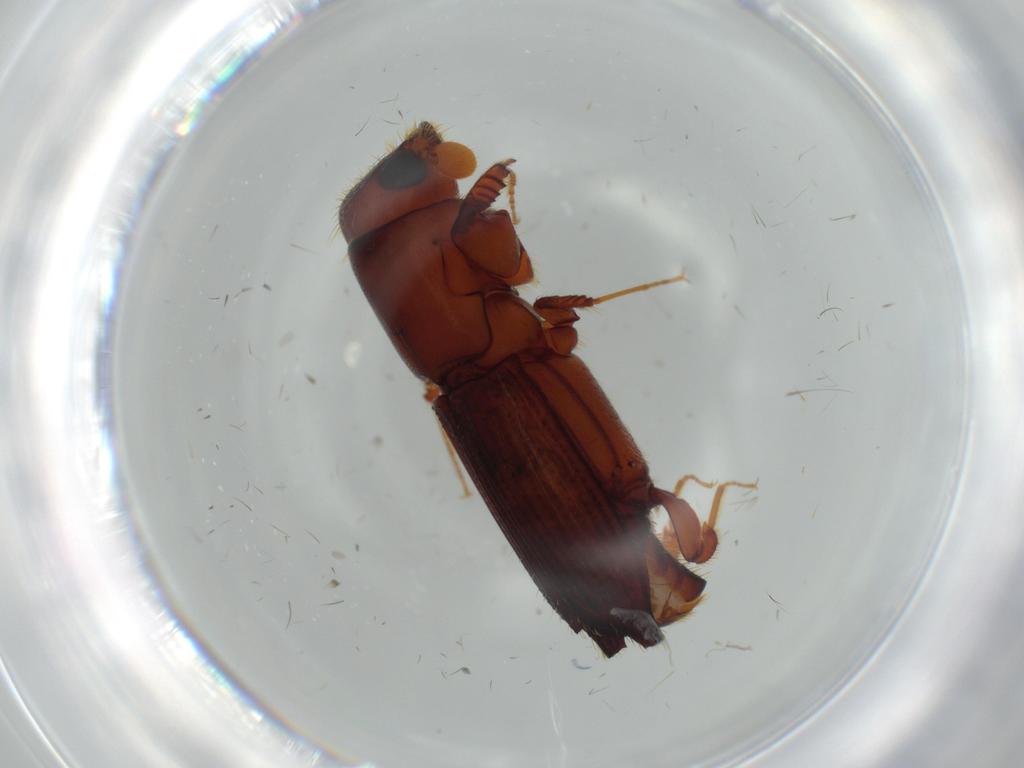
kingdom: Animalia
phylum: Arthropoda
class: Insecta
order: Coleoptera
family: Curculionidae
